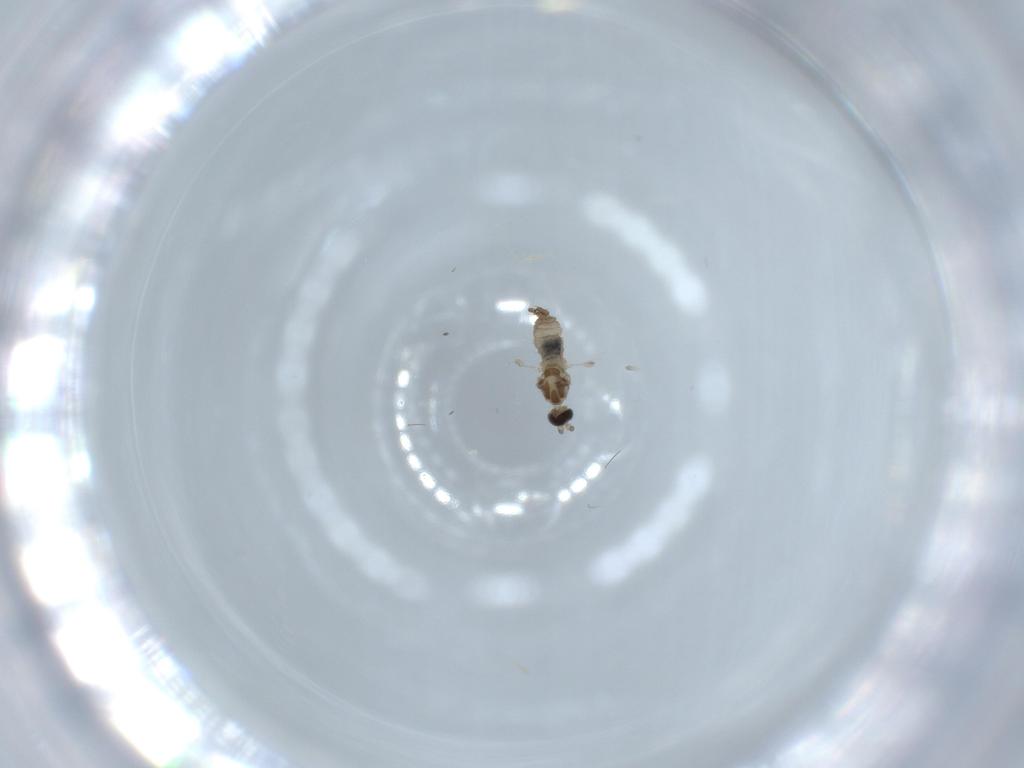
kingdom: Animalia
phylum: Arthropoda
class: Insecta
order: Diptera
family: Cecidomyiidae
